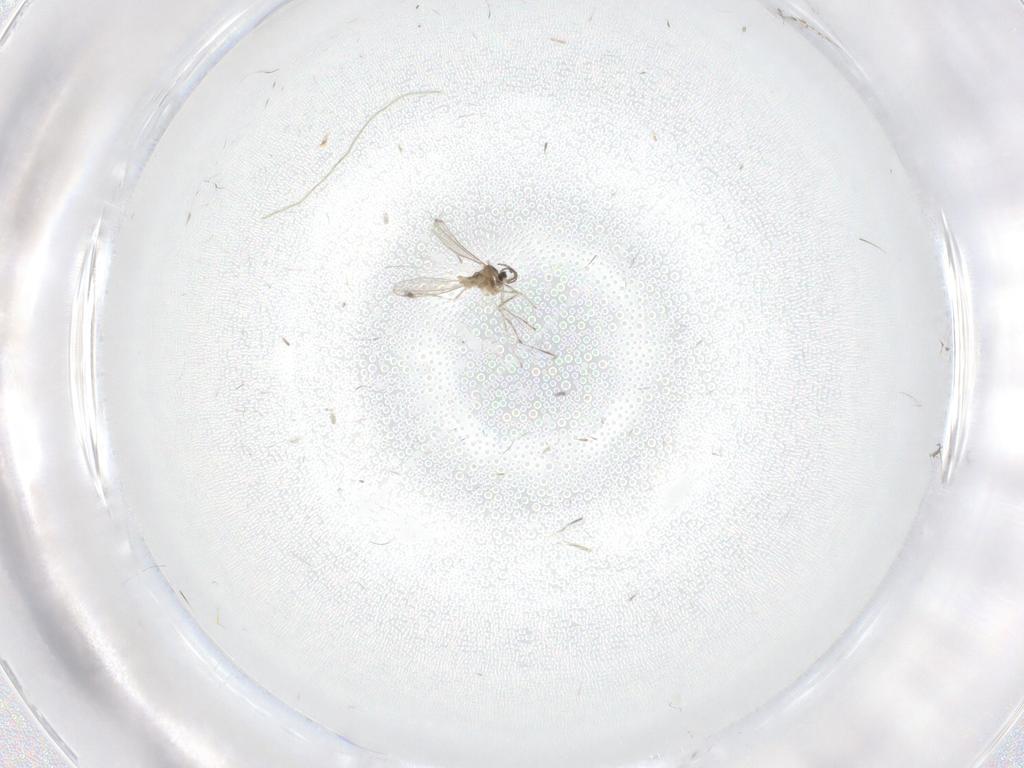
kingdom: Animalia
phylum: Arthropoda
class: Insecta
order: Diptera
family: Cecidomyiidae
